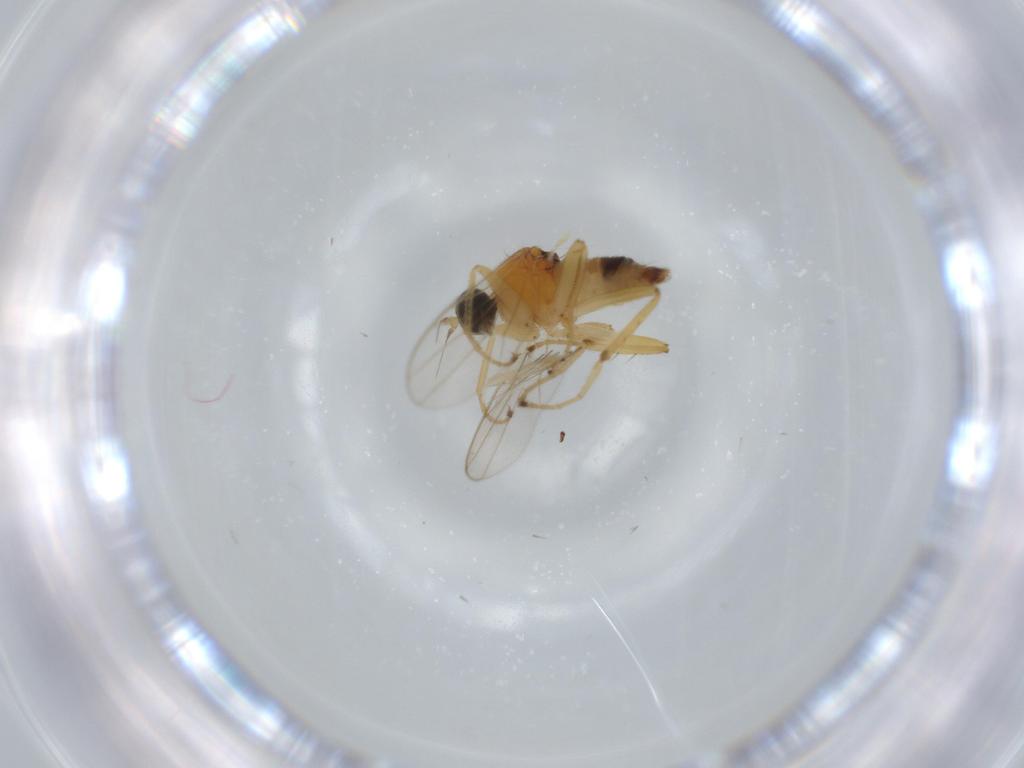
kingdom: Animalia
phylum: Arthropoda
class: Insecta
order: Diptera
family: Hybotidae
